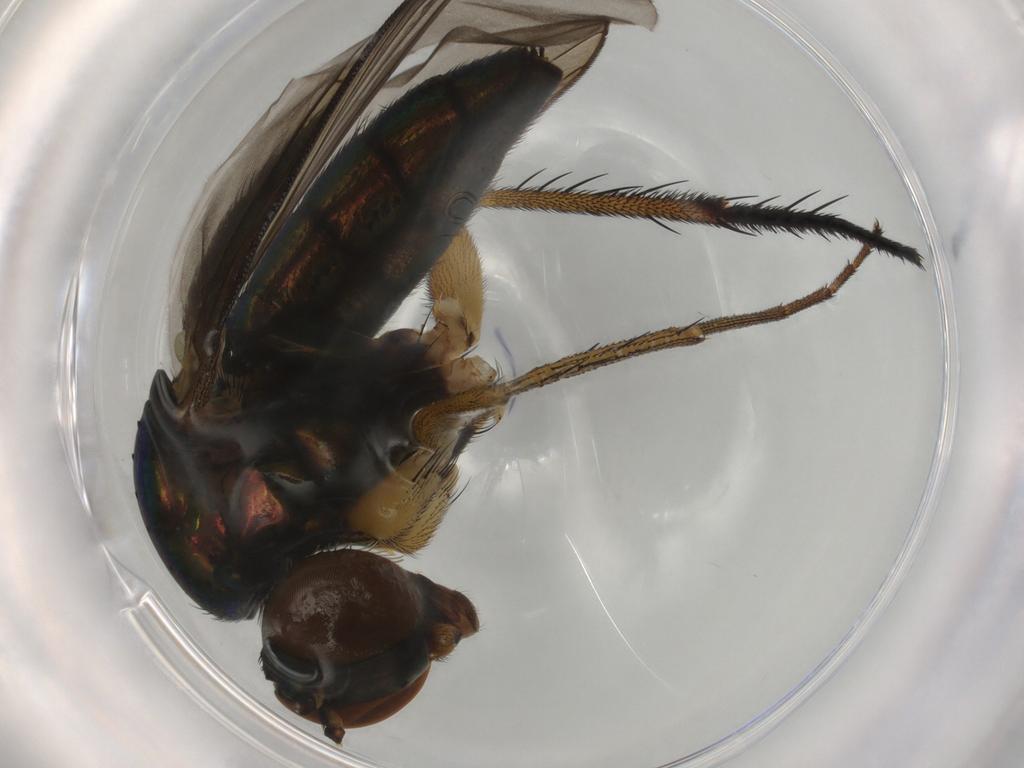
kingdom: Animalia
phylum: Arthropoda
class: Insecta
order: Diptera
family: Dolichopodidae
